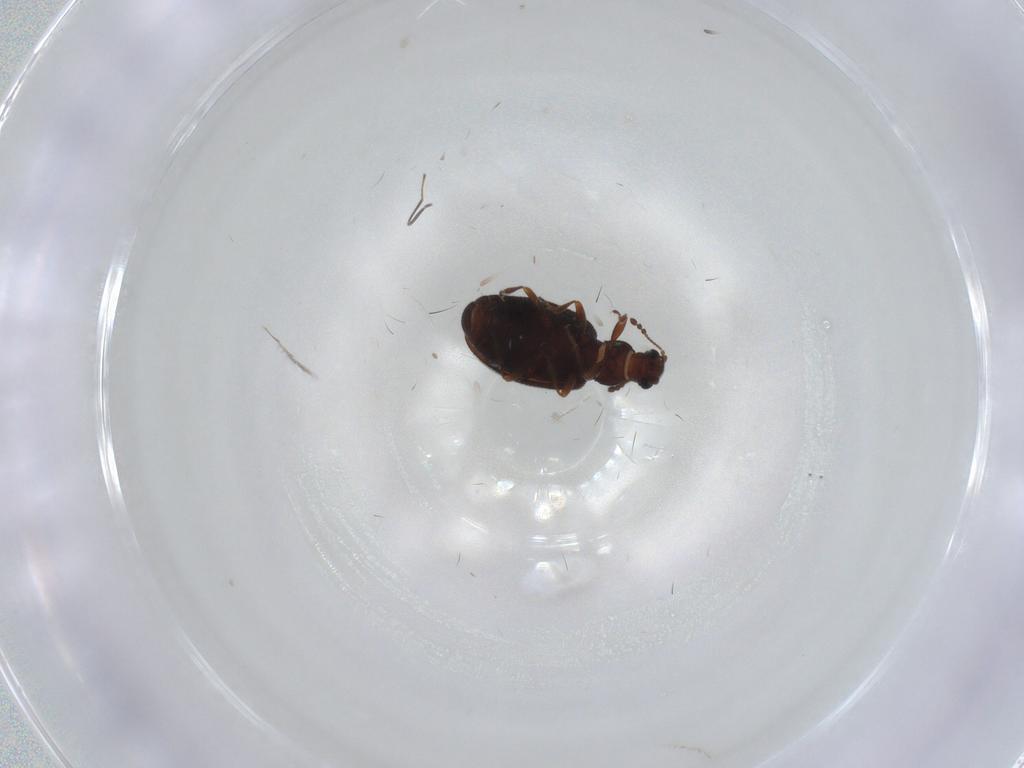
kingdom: Animalia
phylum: Arthropoda
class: Insecta
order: Coleoptera
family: Latridiidae
